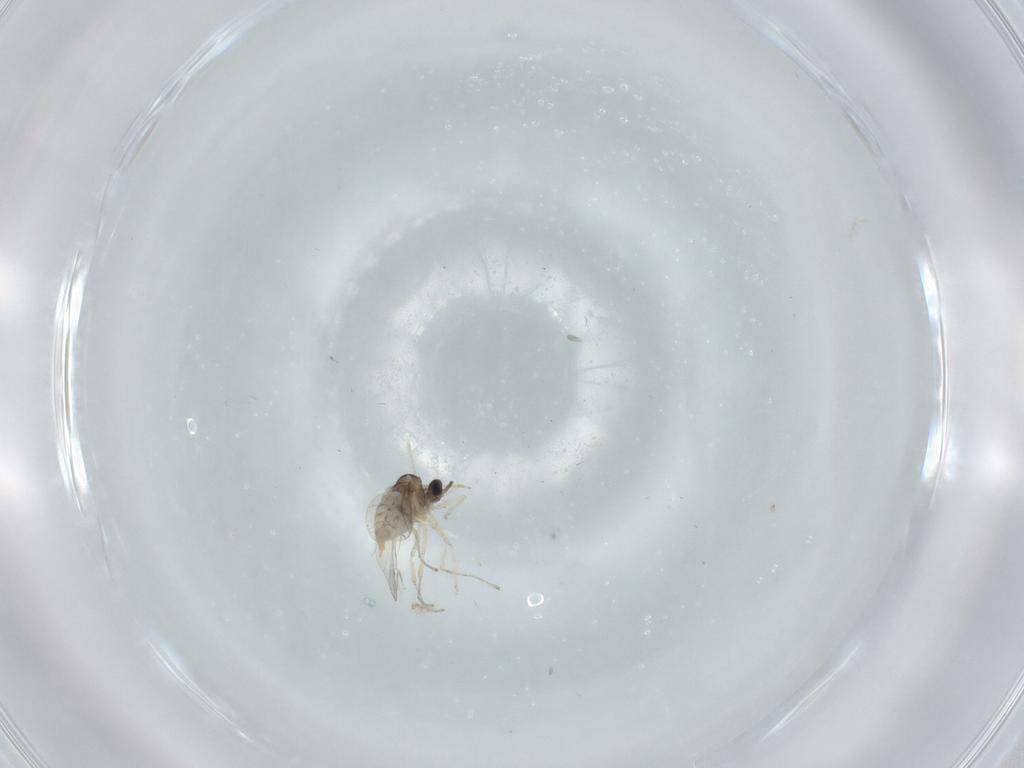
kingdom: Animalia
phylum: Arthropoda
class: Insecta
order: Diptera
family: Cecidomyiidae
